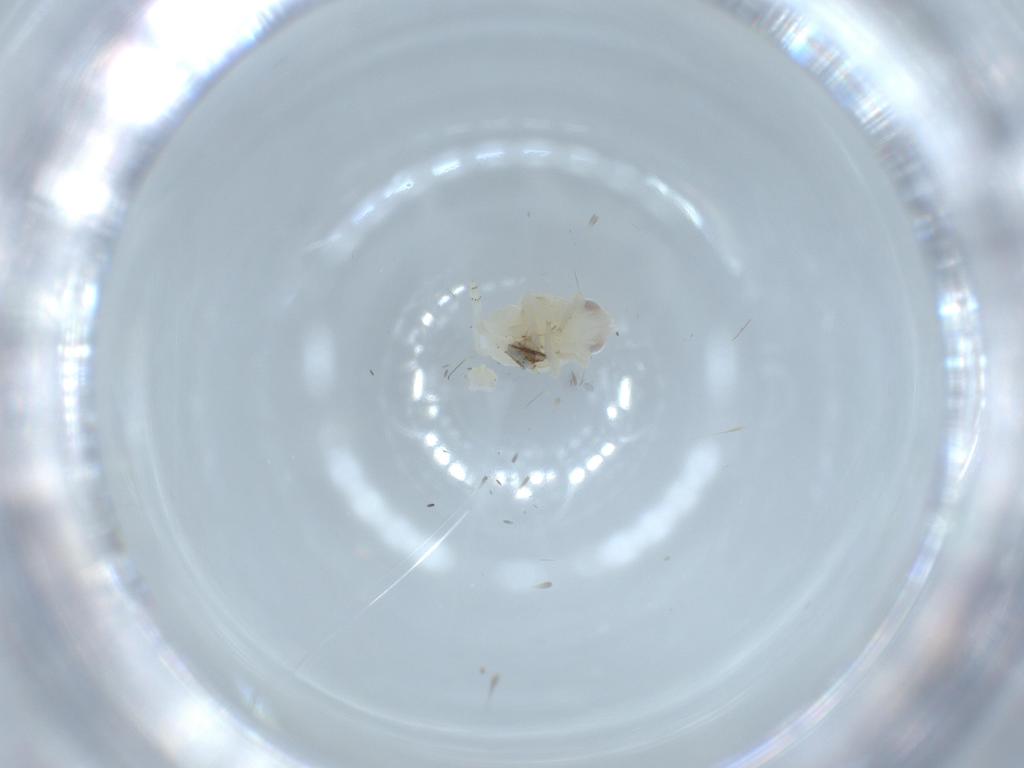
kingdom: Animalia
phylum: Arthropoda
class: Insecta
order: Hemiptera
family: Nogodinidae
